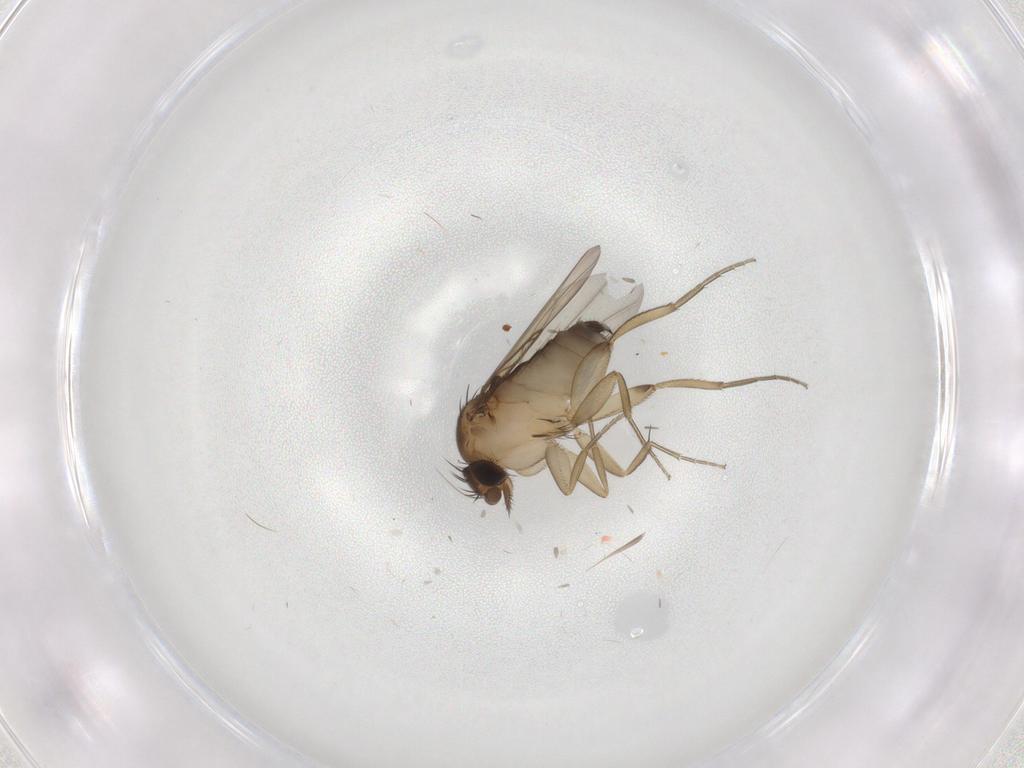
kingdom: Animalia
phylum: Arthropoda
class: Insecta
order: Diptera
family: Phoridae
